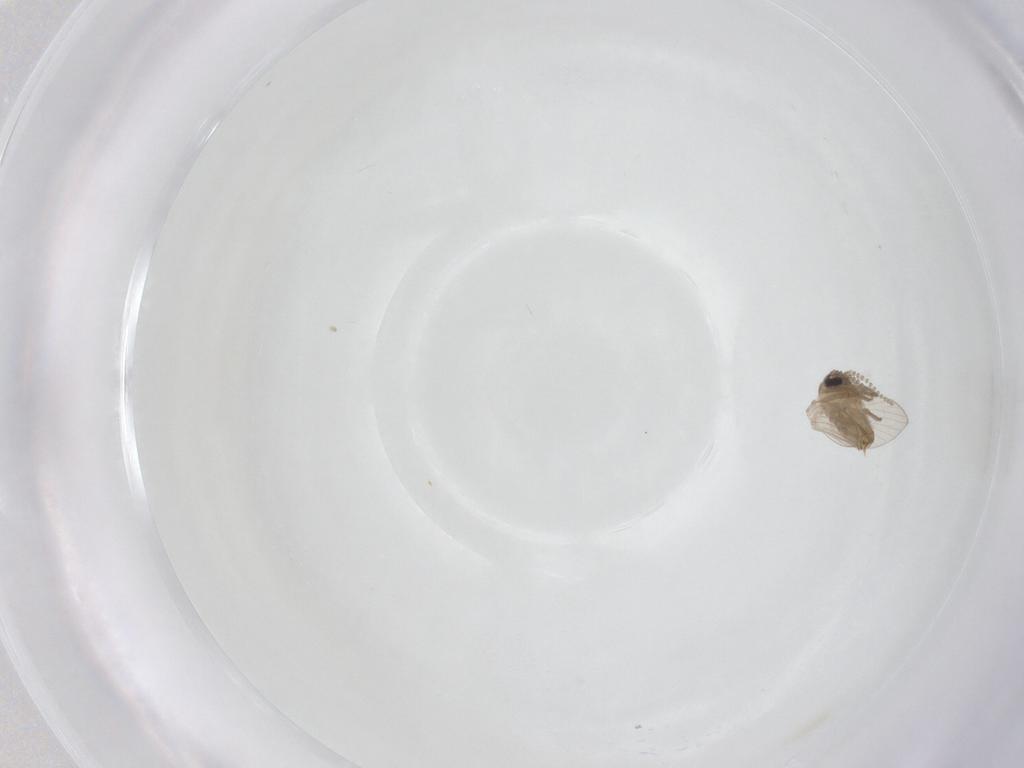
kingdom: Animalia
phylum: Arthropoda
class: Insecta
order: Diptera
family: Psychodidae
